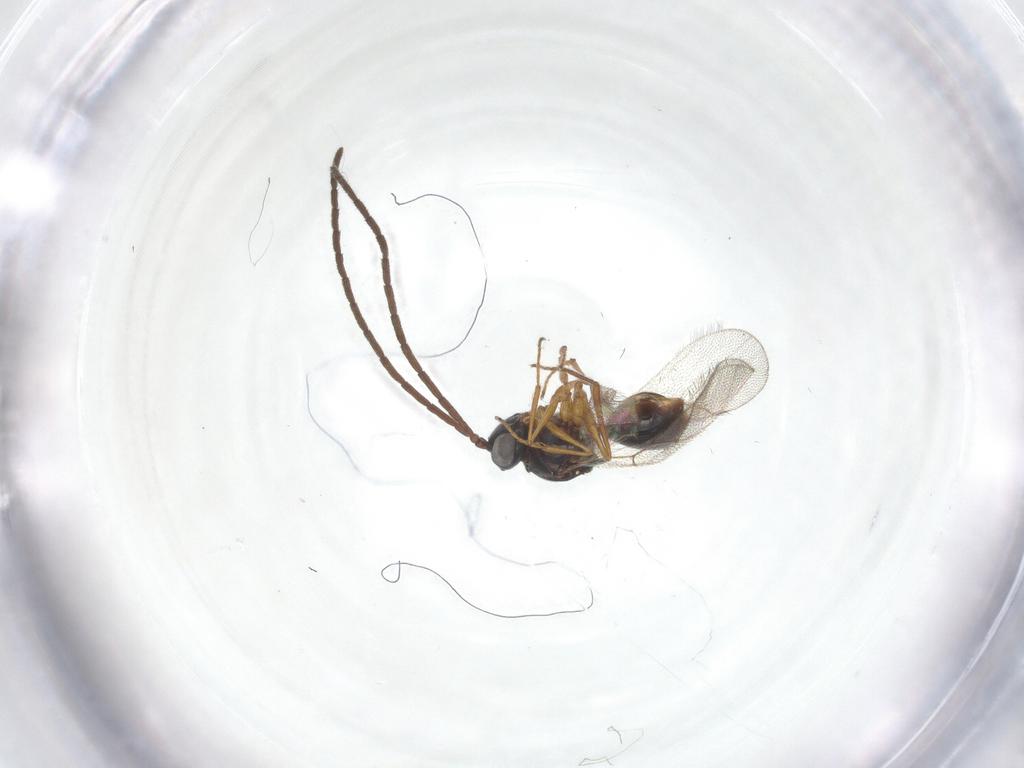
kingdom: Animalia
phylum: Arthropoda
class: Insecta
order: Hymenoptera
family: Figitidae
